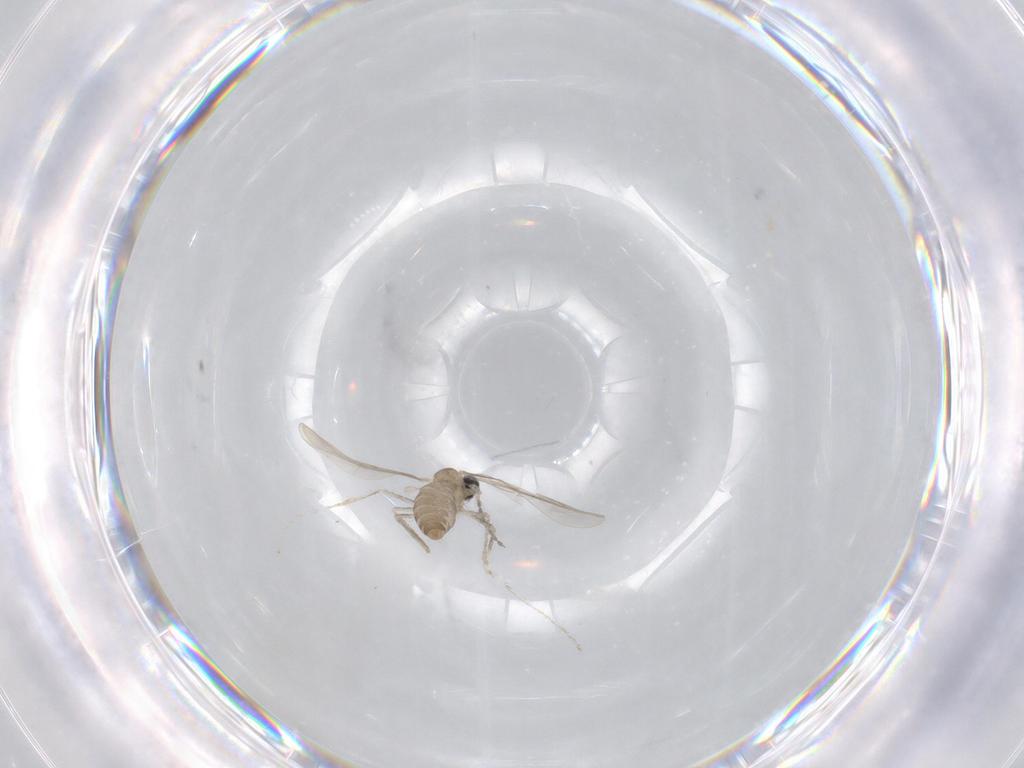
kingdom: Animalia
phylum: Arthropoda
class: Insecta
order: Diptera
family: Cecidomyiidae
